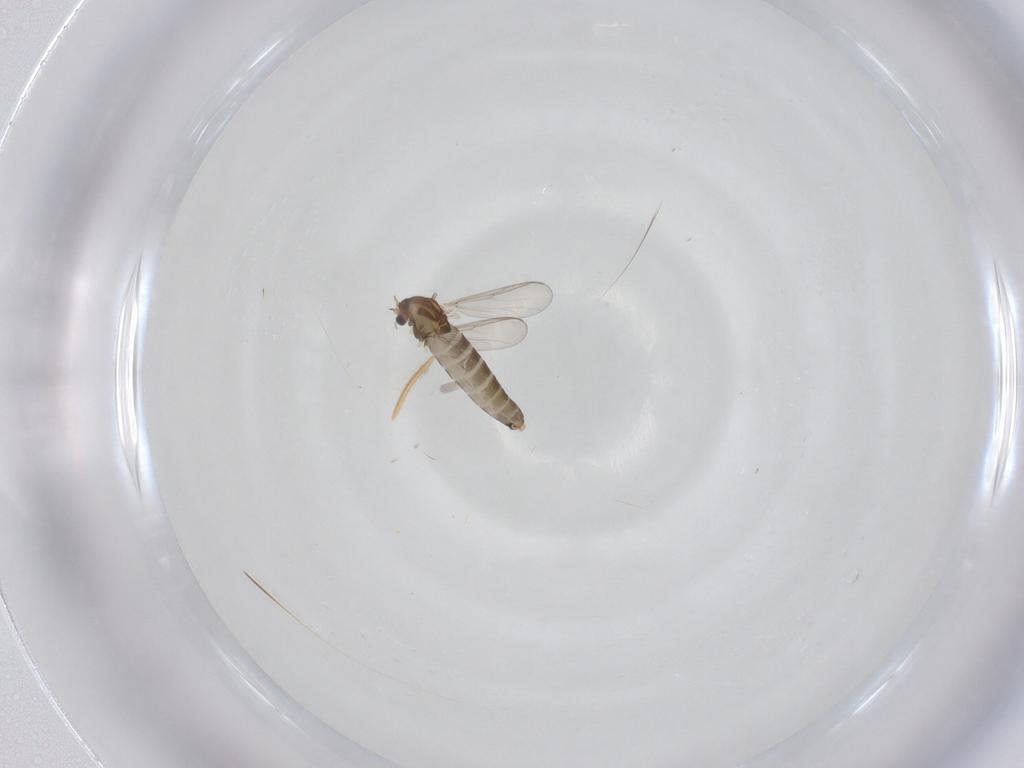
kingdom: Animalia
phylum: Arthropoda
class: Insecta
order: Diptera
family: Chironomidae
